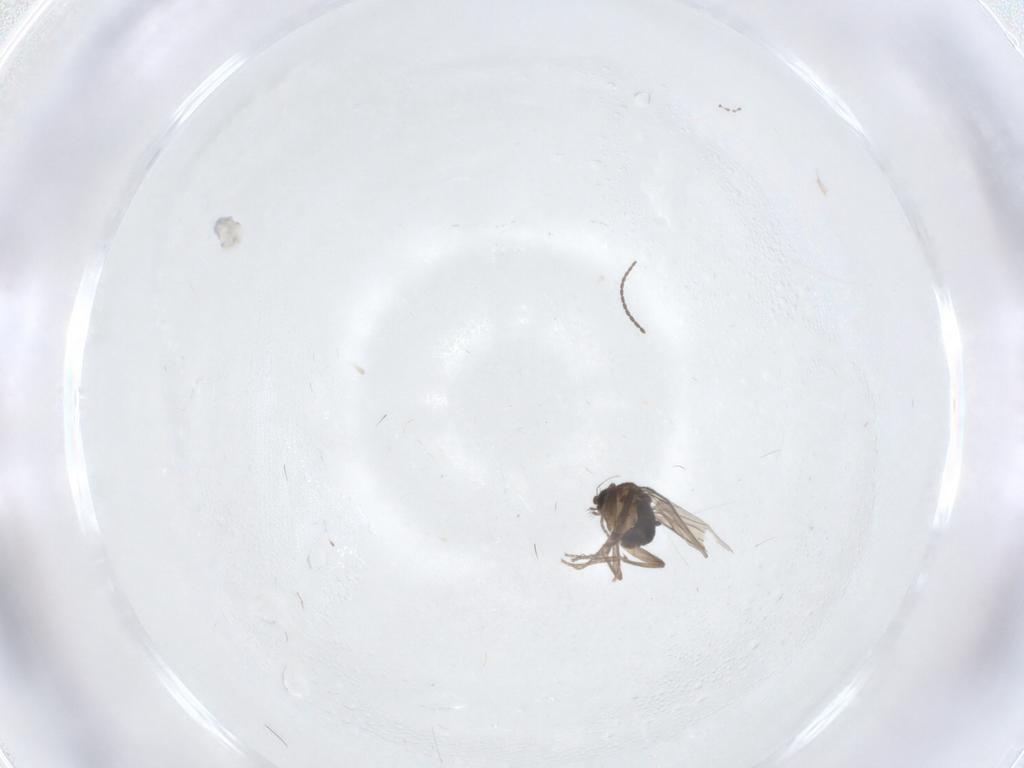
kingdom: Animalia
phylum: Arthropoda
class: Insecta
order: Diptera
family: Phoridae
